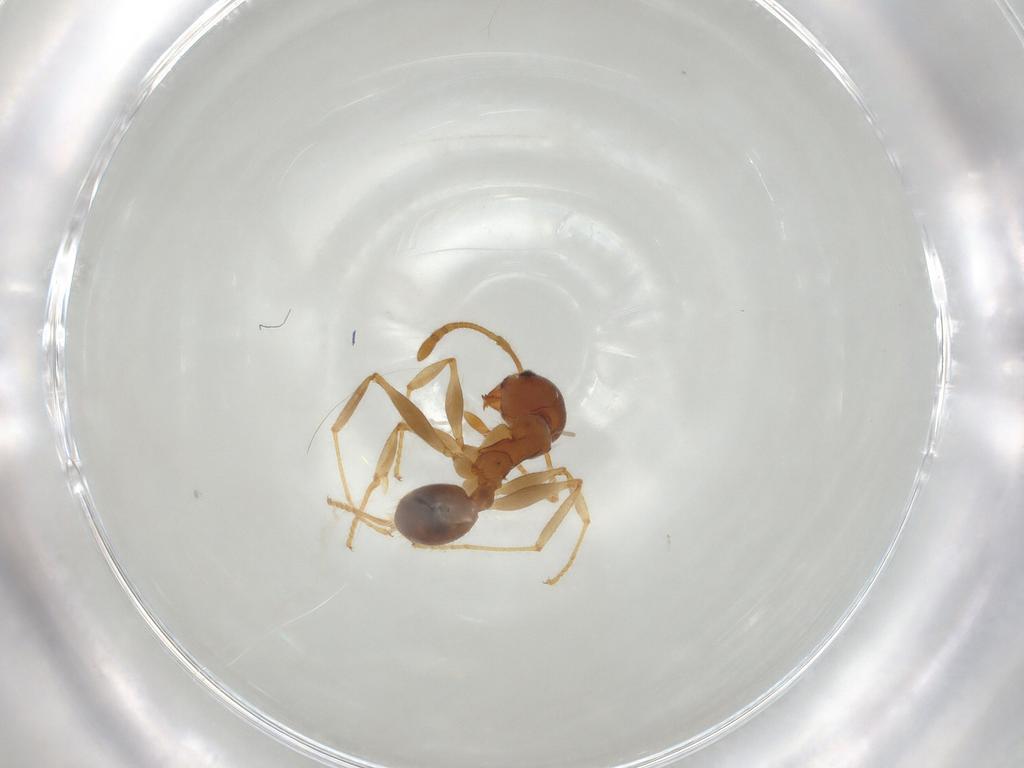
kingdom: Animalia
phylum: Arthropoda
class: Insecta
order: Hymenoptera
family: Formicidae
